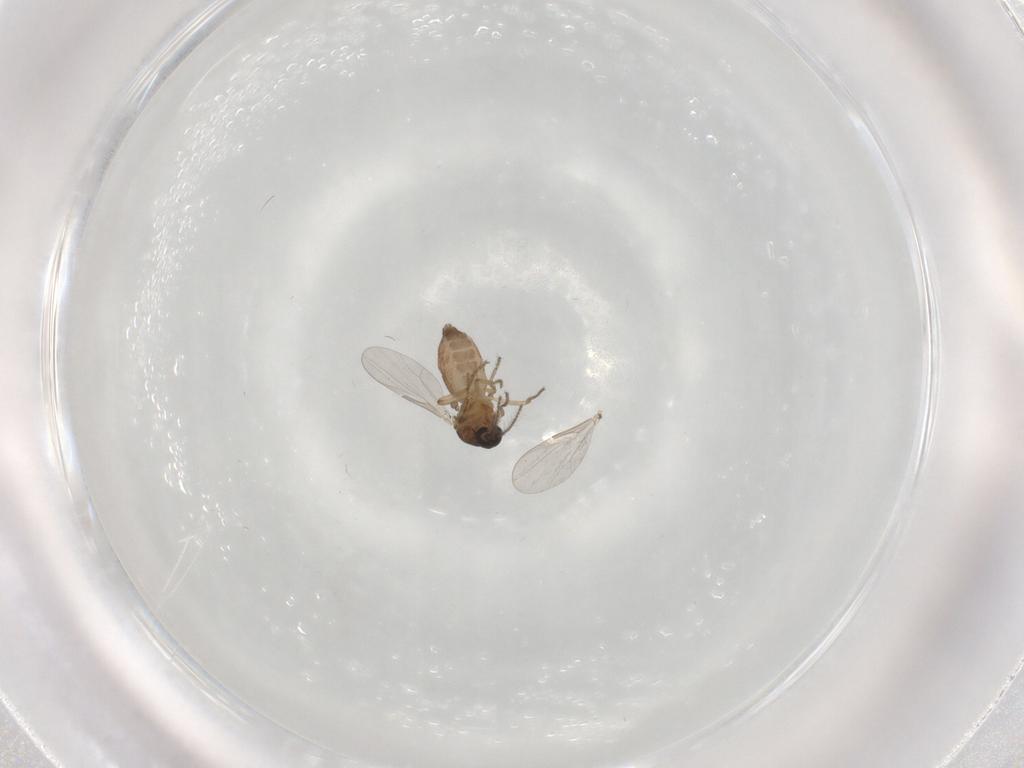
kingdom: Animalia
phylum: Arthropoda
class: Insecta
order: Diptera
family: Ceratopogonidae
